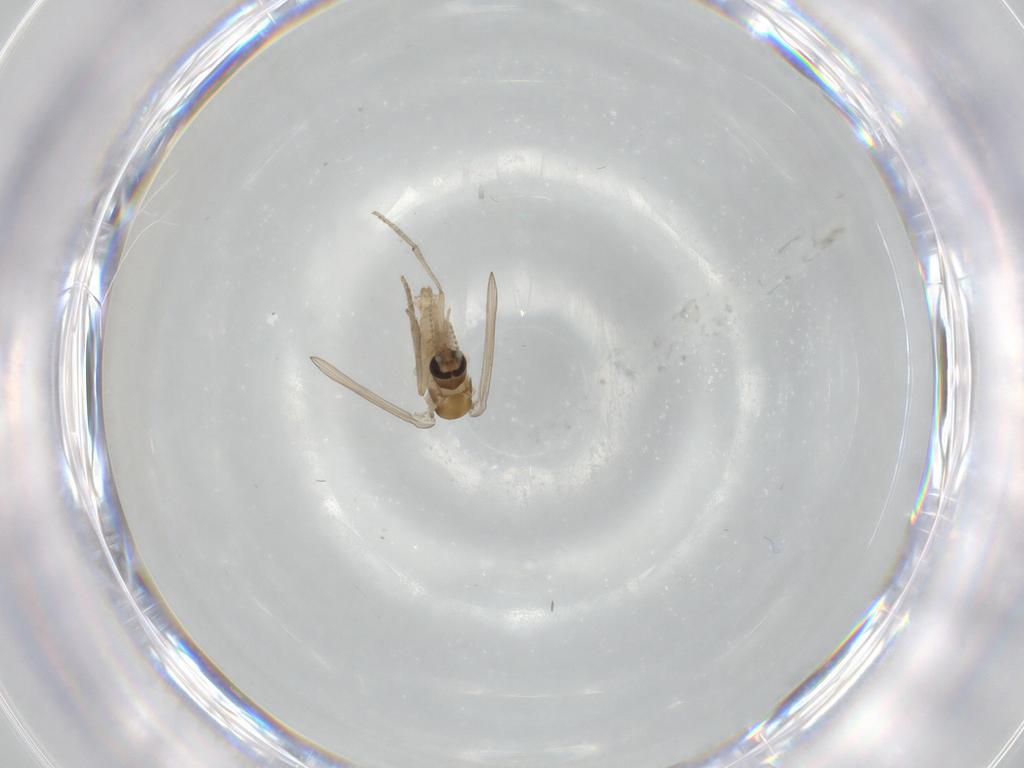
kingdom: Animalia
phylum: Arthropoda
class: Insecta
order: Diptera
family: Psychodidae
